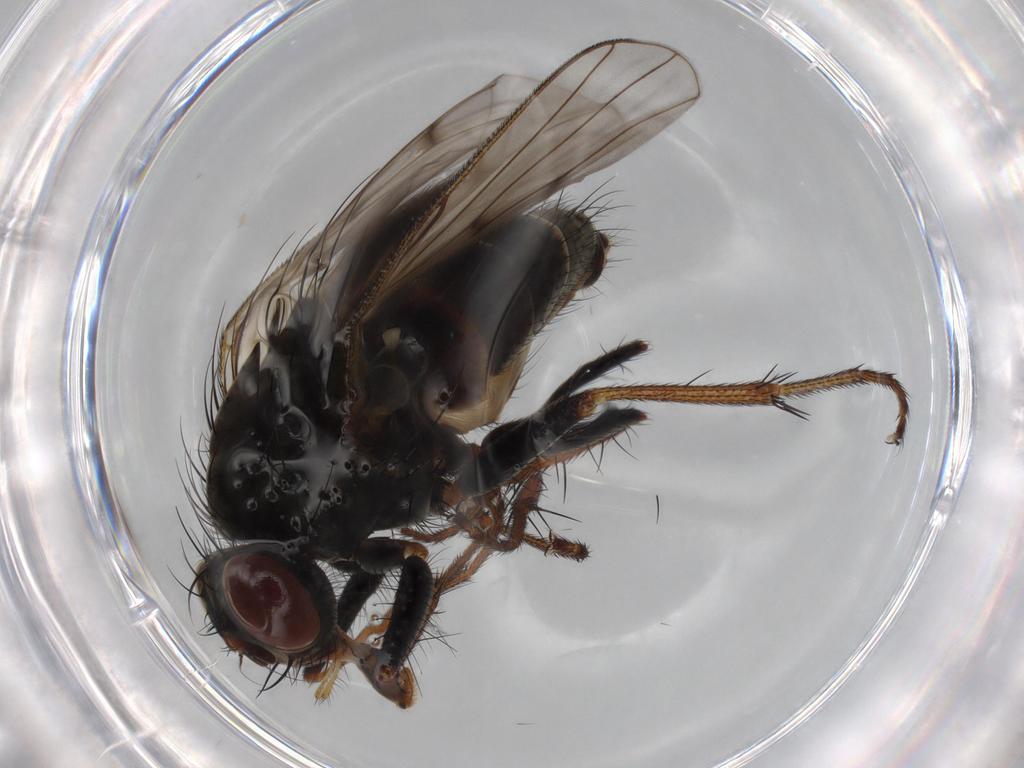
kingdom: Animalia
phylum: Arthropoda
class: Insecta
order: Diptera
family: Muscidae
